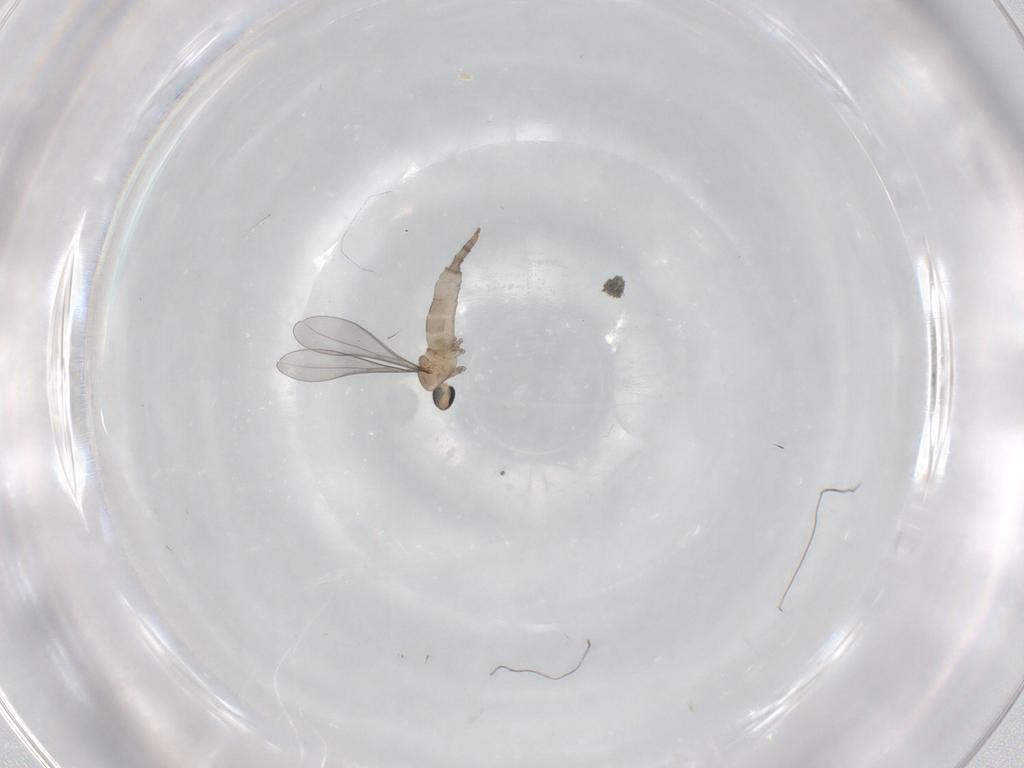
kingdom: Animalia
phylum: Arthropoda
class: Insecta
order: Diptera
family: Cecidomyiidae
